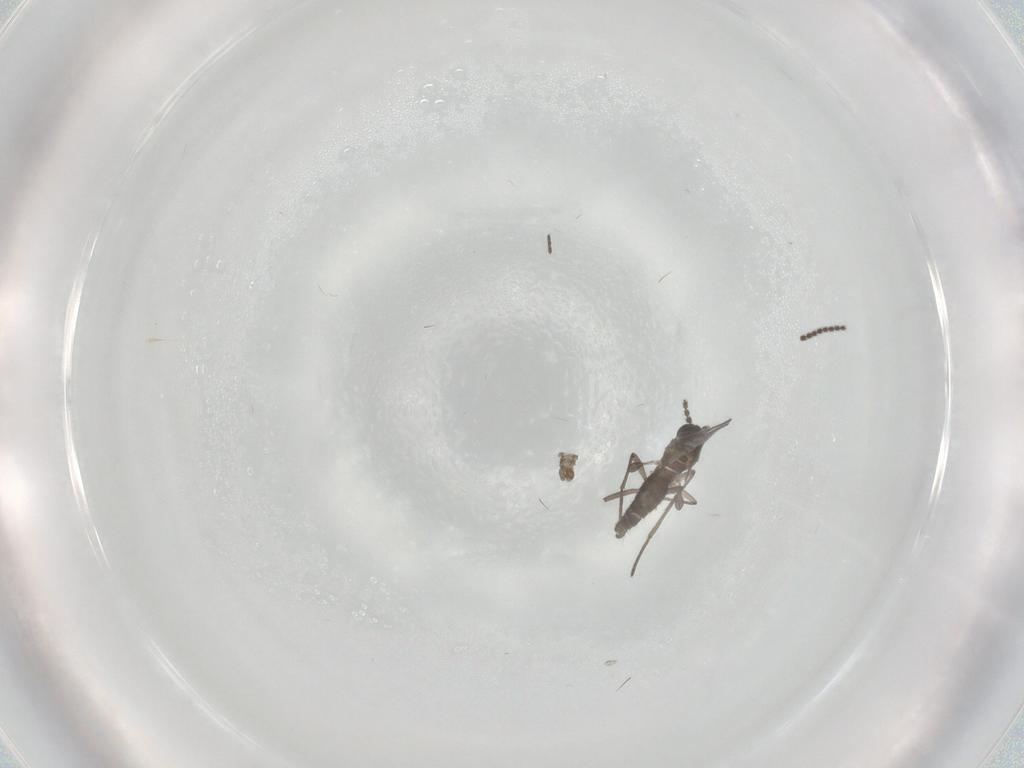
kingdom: Animalia
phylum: Arthropoda
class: Insecta
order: Diptera
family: Cecidomyiidae
